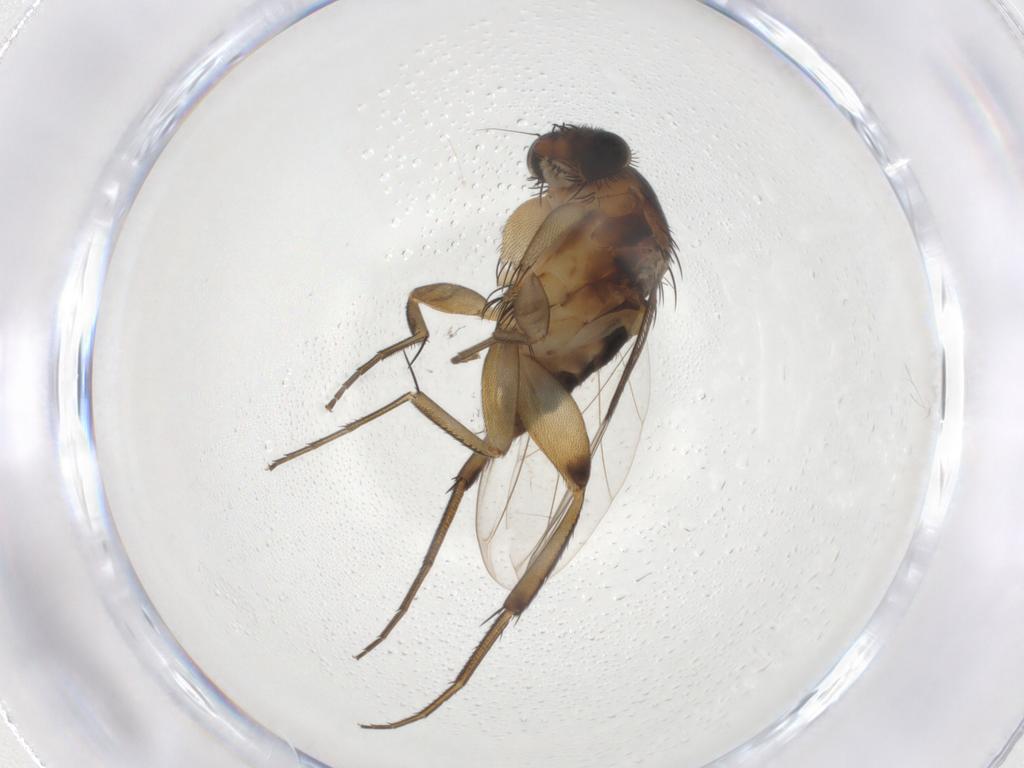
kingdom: Animalia
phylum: Arthropoda
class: Insecta
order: Diptera
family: Phoridae
